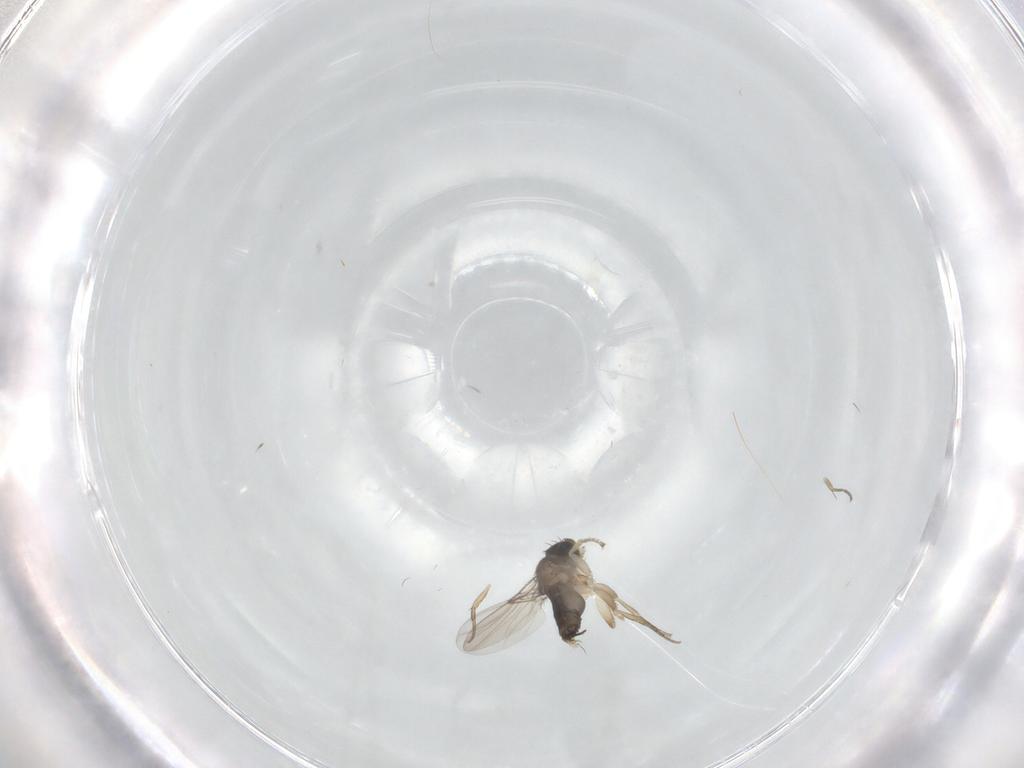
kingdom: Animalia
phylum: Arthropoda
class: Insecta
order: Diptera
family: Phoridae
